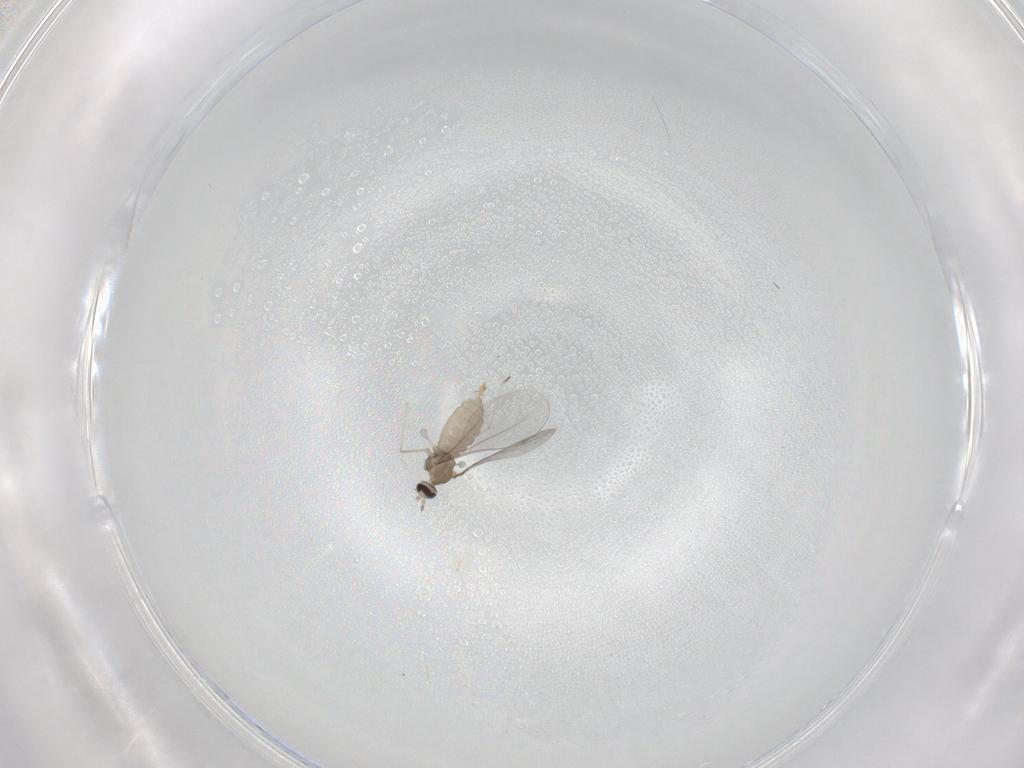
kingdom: Animalia
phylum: Arthropoda
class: Insecta
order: Diptera
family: Cecidomyiidae
